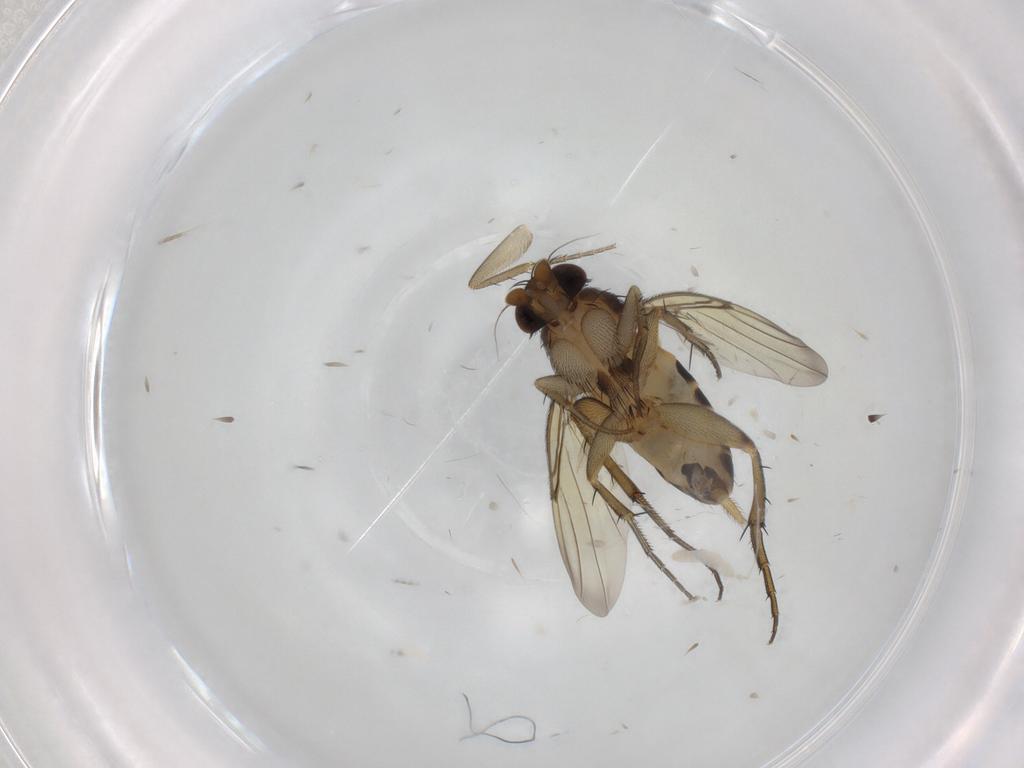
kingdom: Animalia
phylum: Arthropoda
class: Insecta
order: Diptera
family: Phoridae
